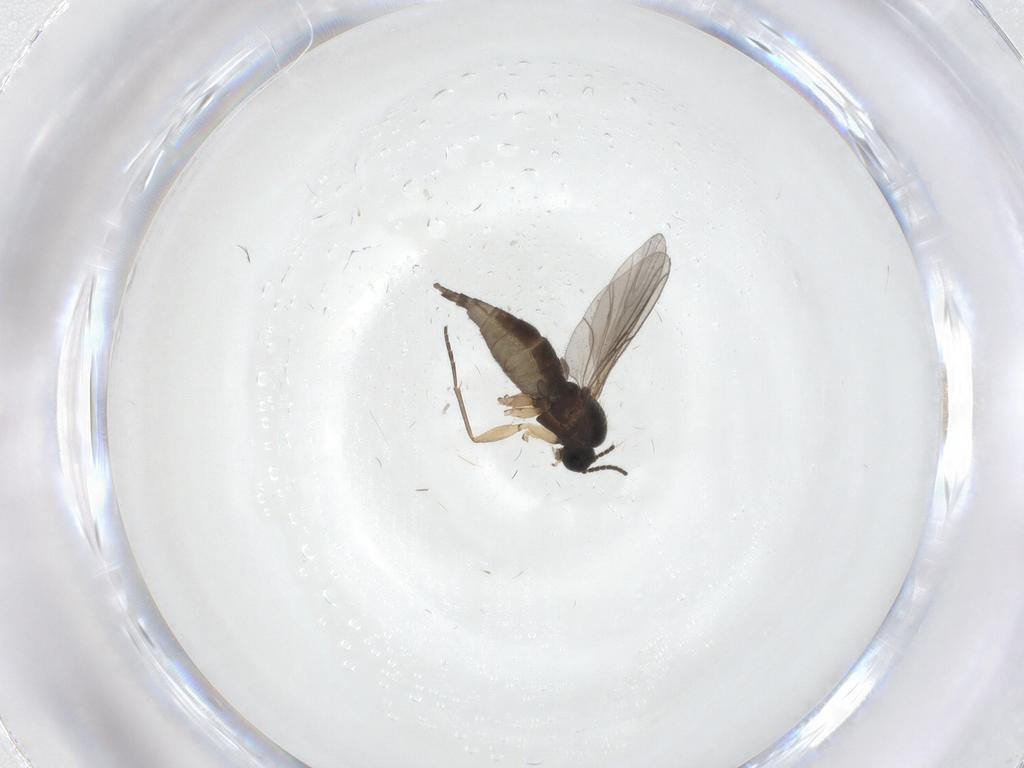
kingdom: Animalia
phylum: Arthropoda
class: Insecta
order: Diptera
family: Sciaridae
